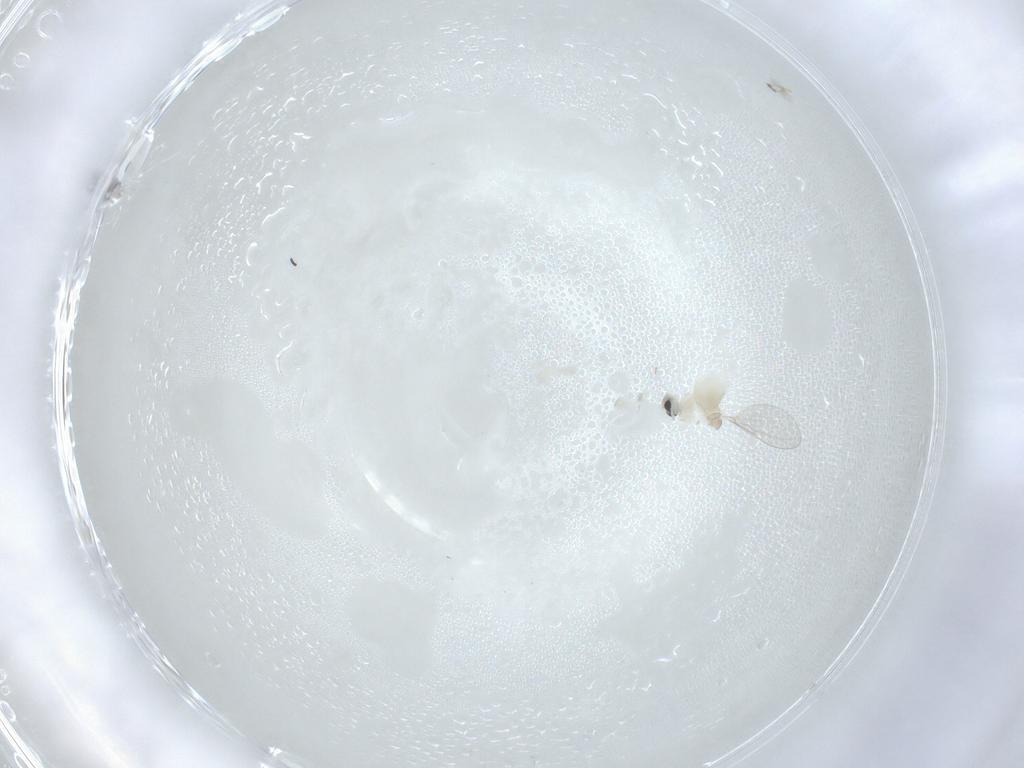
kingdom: Animalia
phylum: Arthropoda
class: Insecta
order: Diptera
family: Cecidomyiidae
